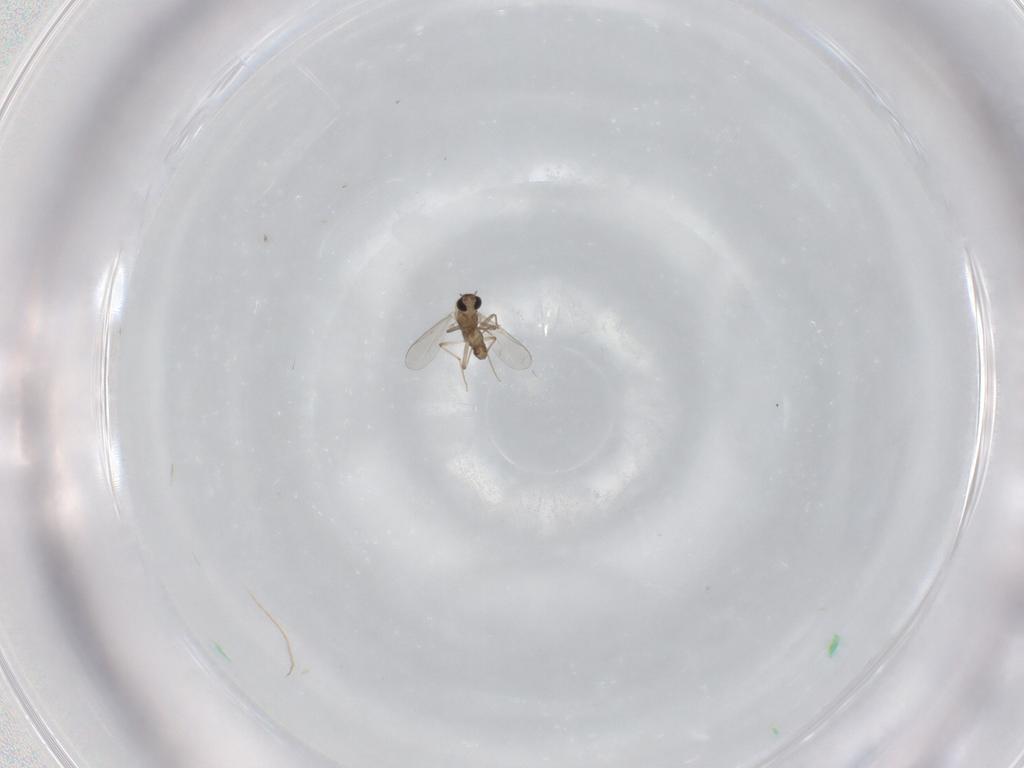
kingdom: Animalia
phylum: Arthropoda
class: Insecta
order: Diptera
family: Chironomidae
